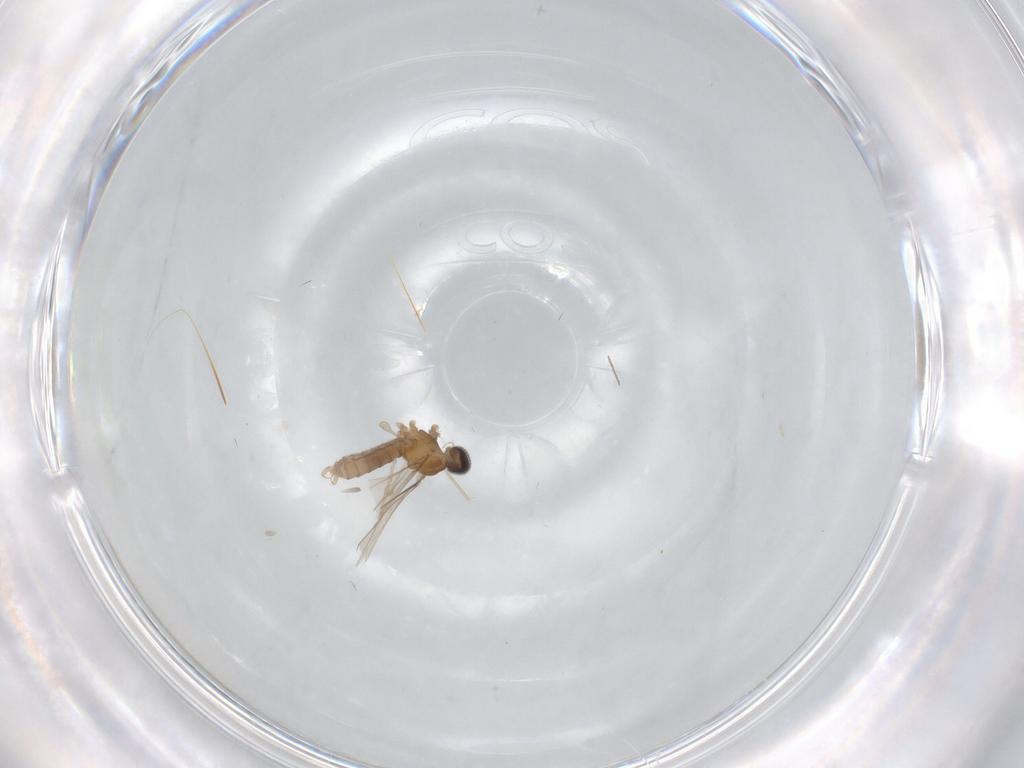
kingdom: Animalia
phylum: Arthropoda
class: Insecta
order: Diptera
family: Cecidomyiidae
